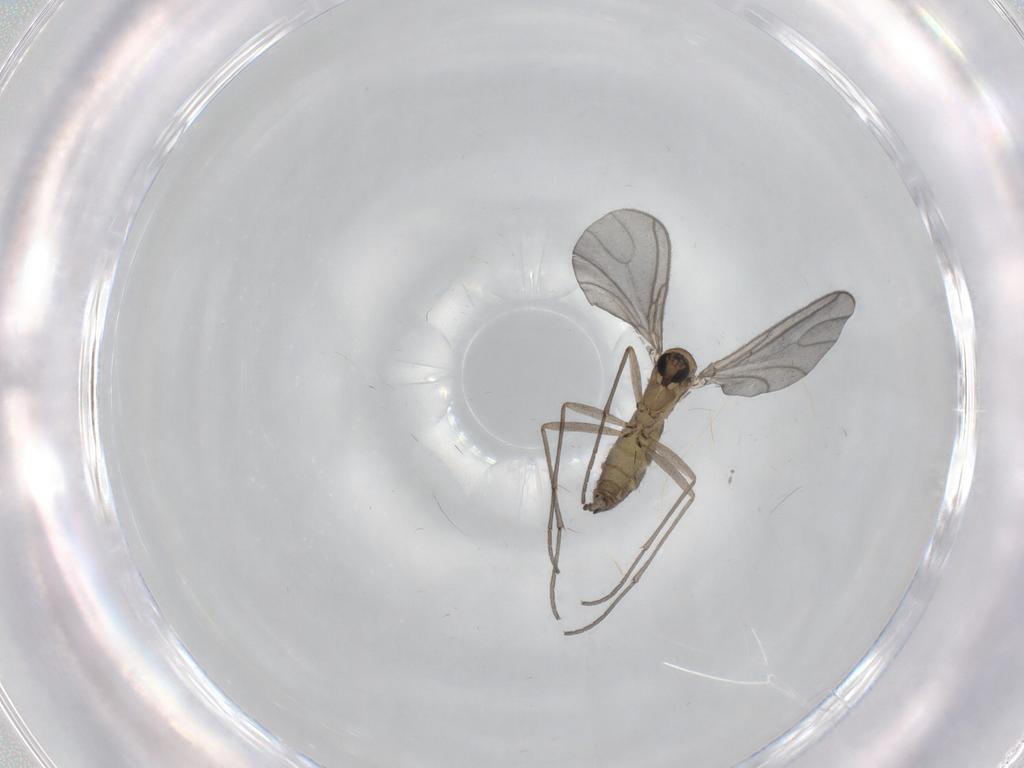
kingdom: Animalia
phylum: Arthropoda
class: Insecta
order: Diptera
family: Sciaridae
